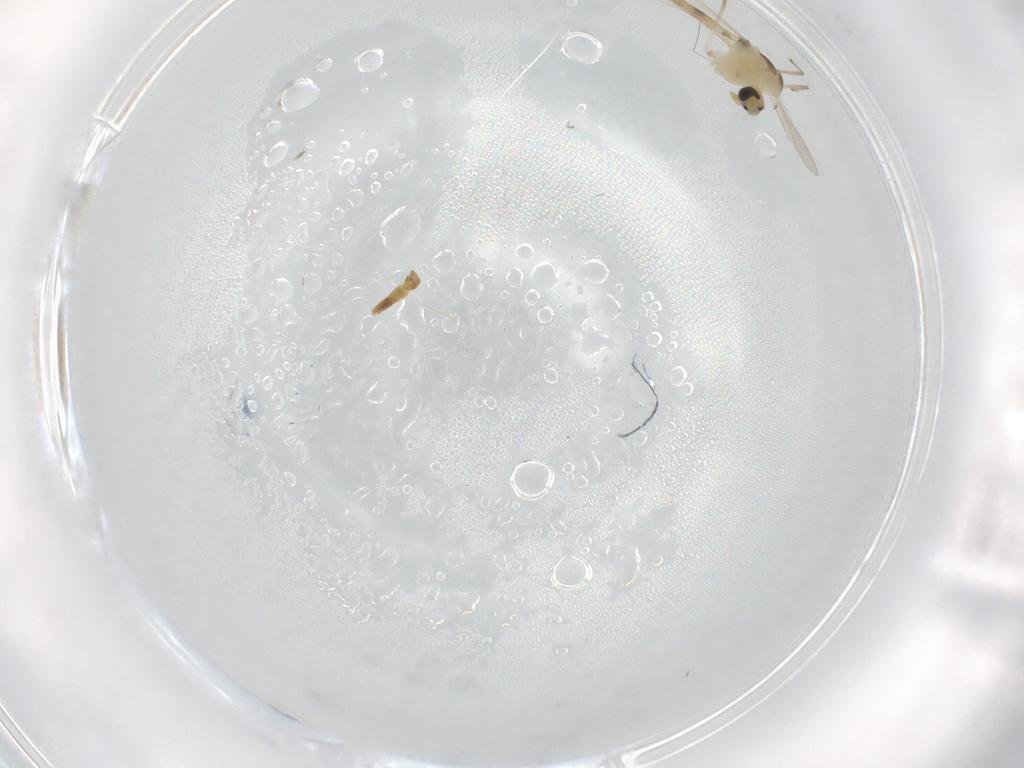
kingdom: Animalia
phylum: Arthropoda
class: Insecta
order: Diptera
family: Chironomidae
